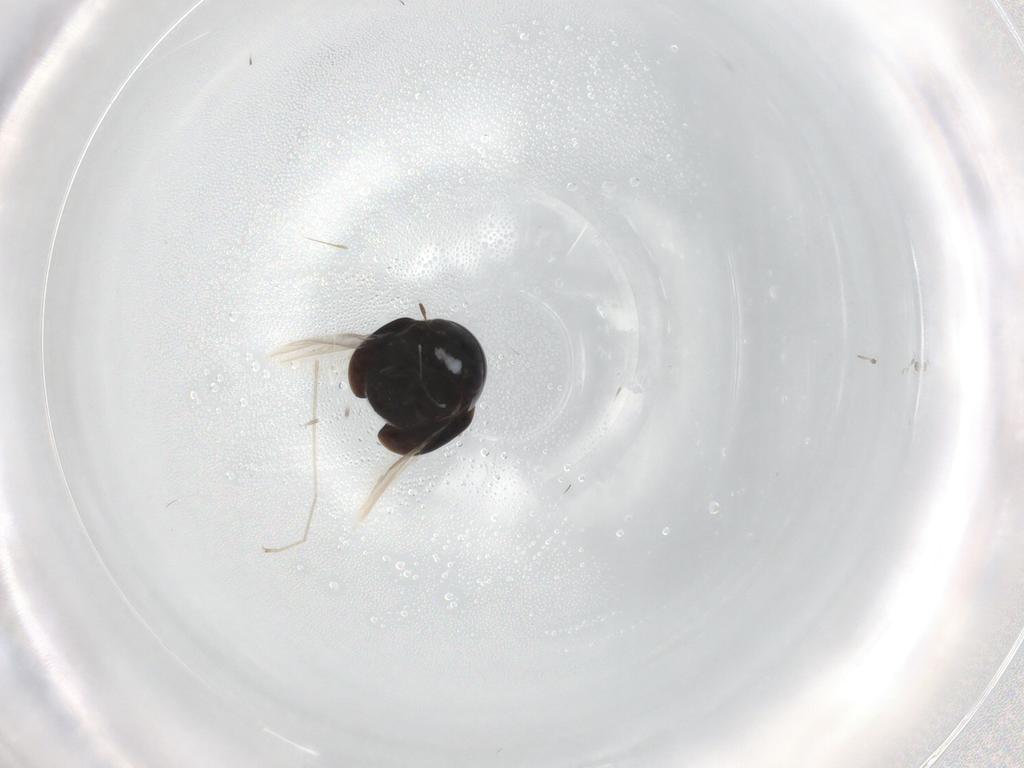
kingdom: Animalia
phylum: Arthropoda
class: Insecta
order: Coleoptera
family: Cybocephalidae
